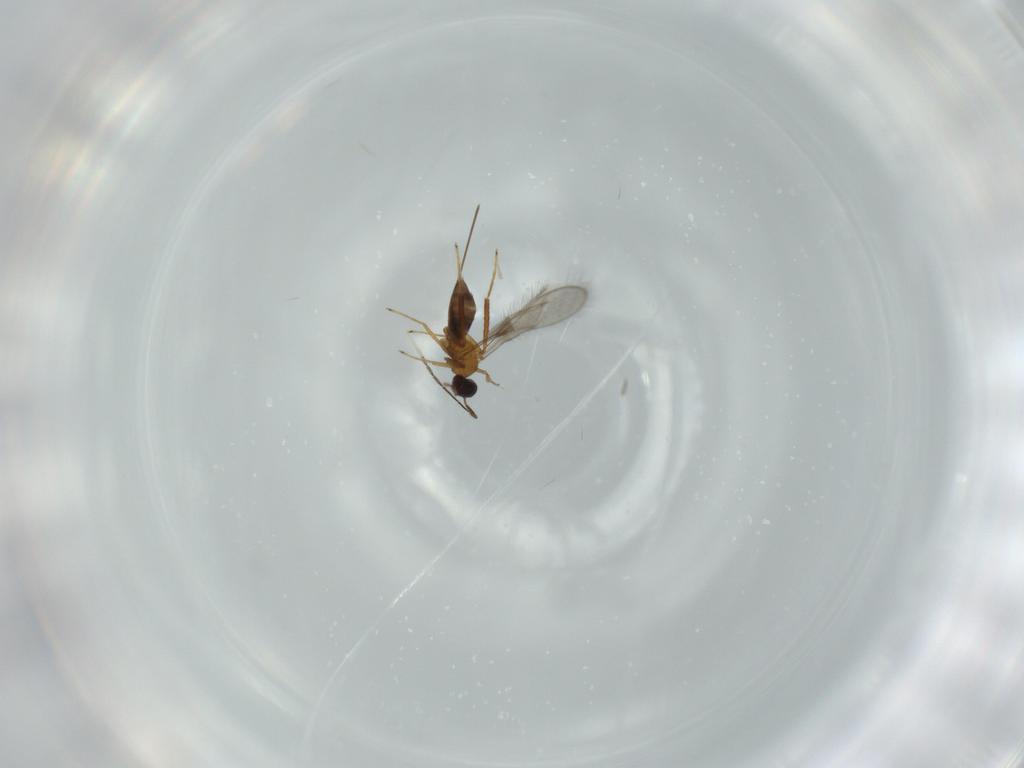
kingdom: Animalia
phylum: Arthropoda
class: Insecta
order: Hymenoptera
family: Mymaridae
